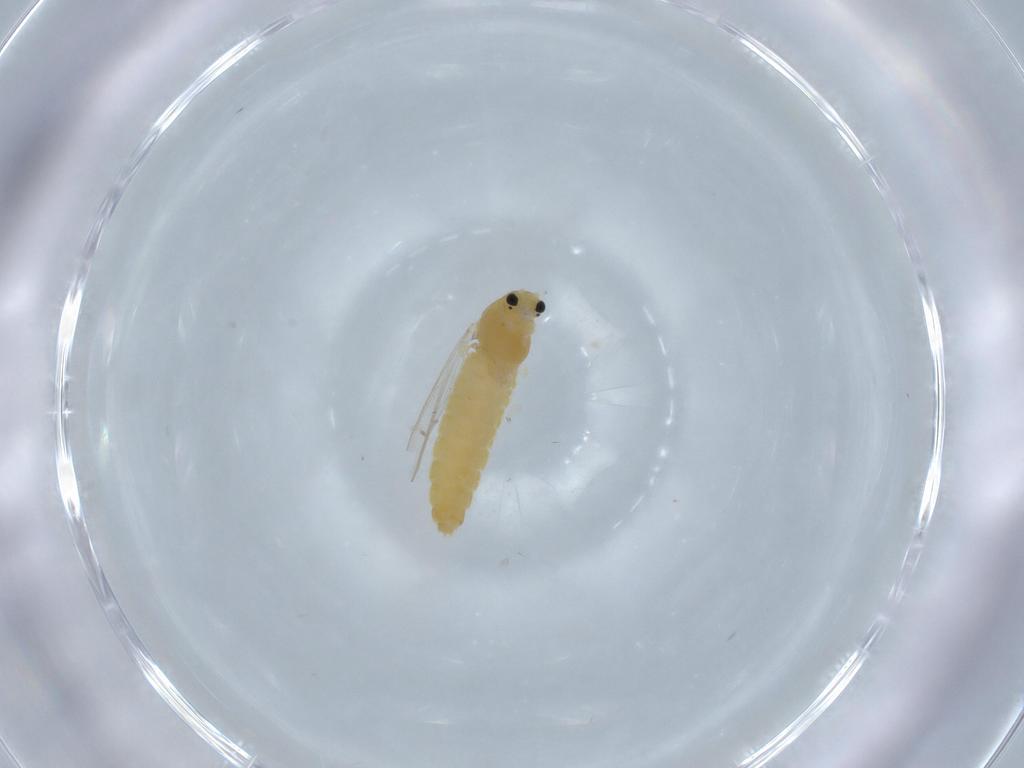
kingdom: Animalia
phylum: Arthropoda
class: Insecta
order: Diptera
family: Chironomidae
